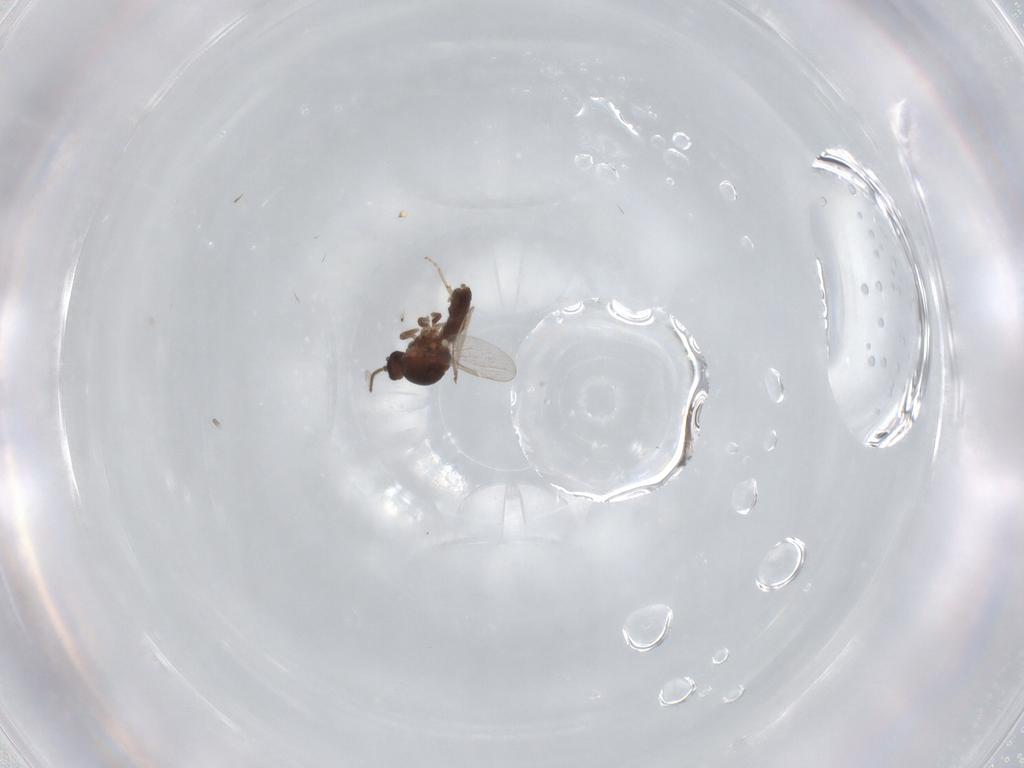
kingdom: Animalia
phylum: Arthropoda
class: Insecta
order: Diptera
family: Ceratopogonidae
